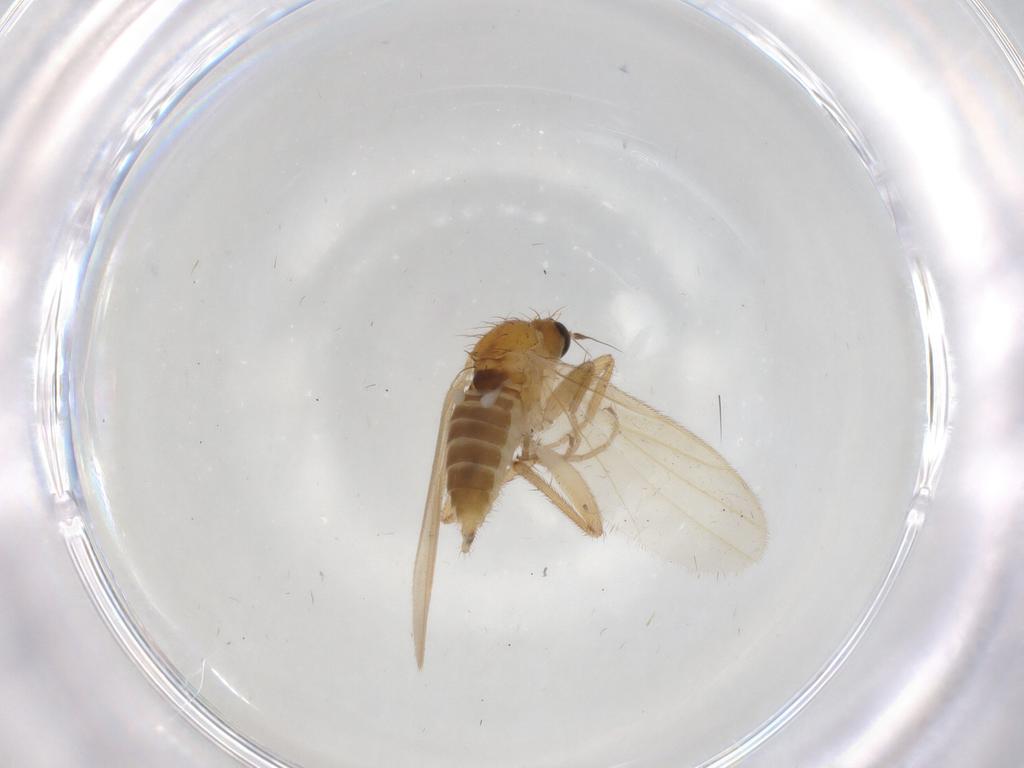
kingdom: Animalia
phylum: Arthropoda
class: Insecta
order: Diptera
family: Hybotidae
